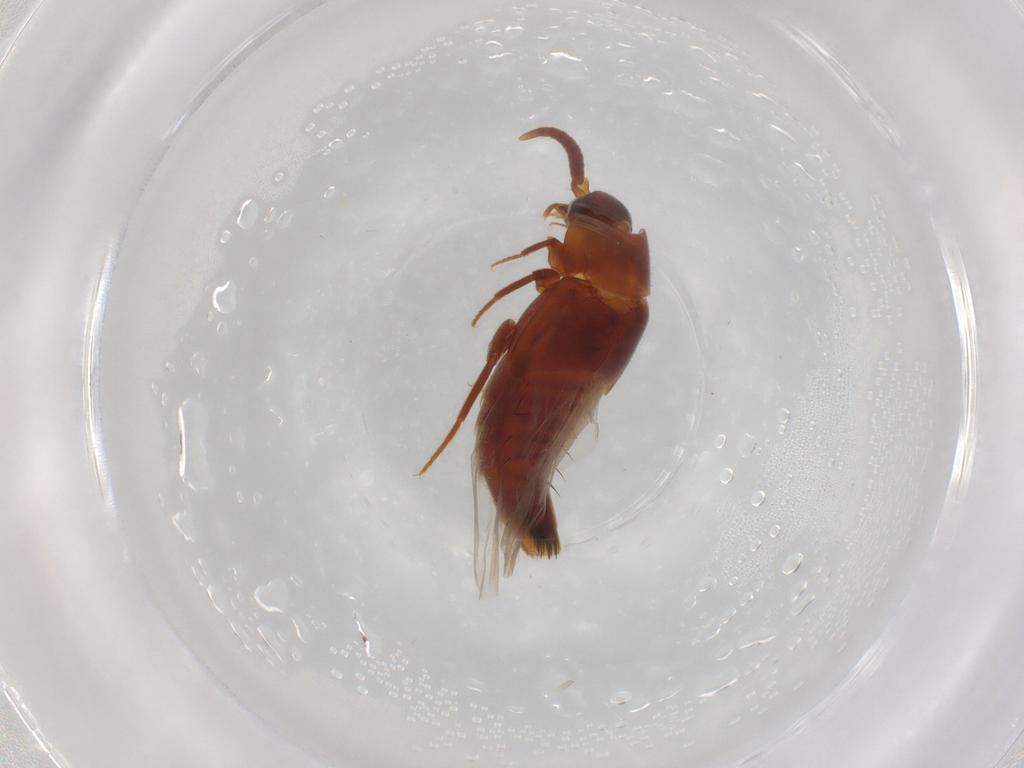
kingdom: Animalia
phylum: Arthropoda
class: Insecta
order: Coleoptera
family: Staphylinidae
